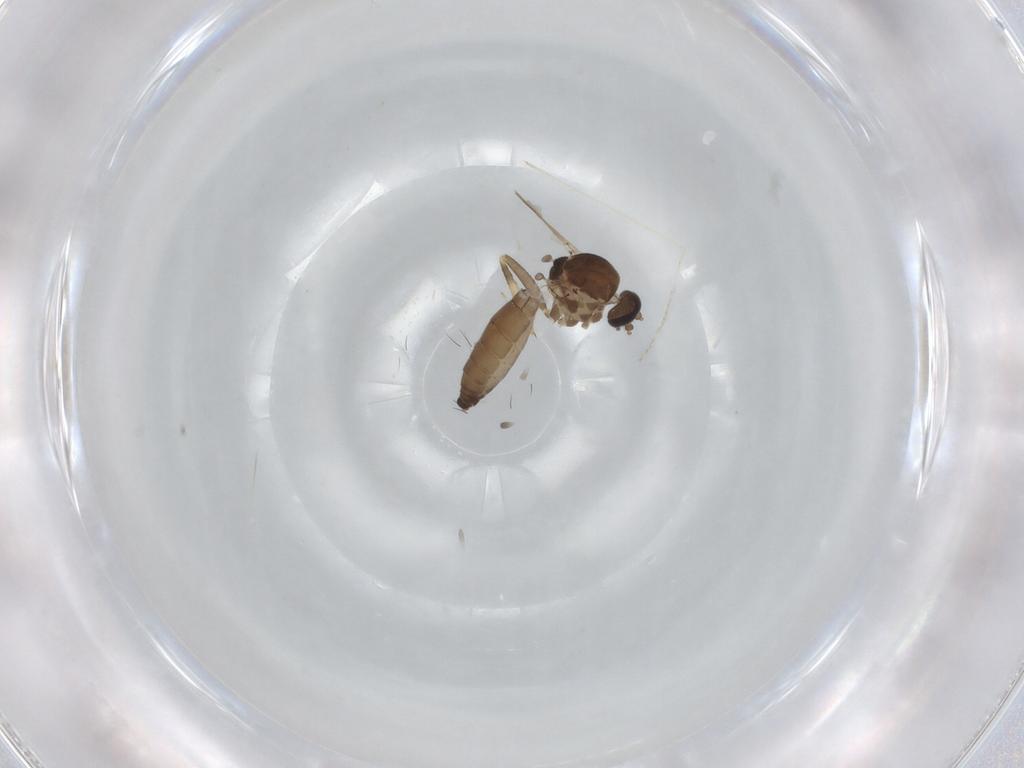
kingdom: Animalia
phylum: Arthropoda
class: Insecta
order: Diptera
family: Ceratopogonidae
